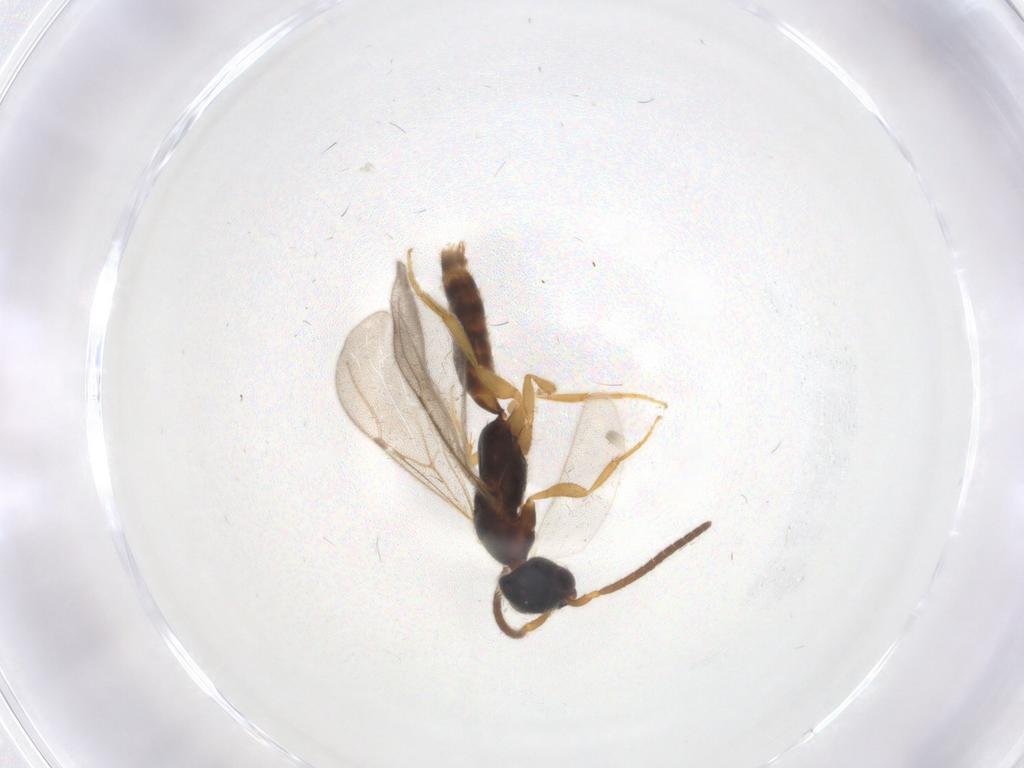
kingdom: Animalia
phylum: Arthropoda
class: Insecta
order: Hymenoptera
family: Bethylidae
